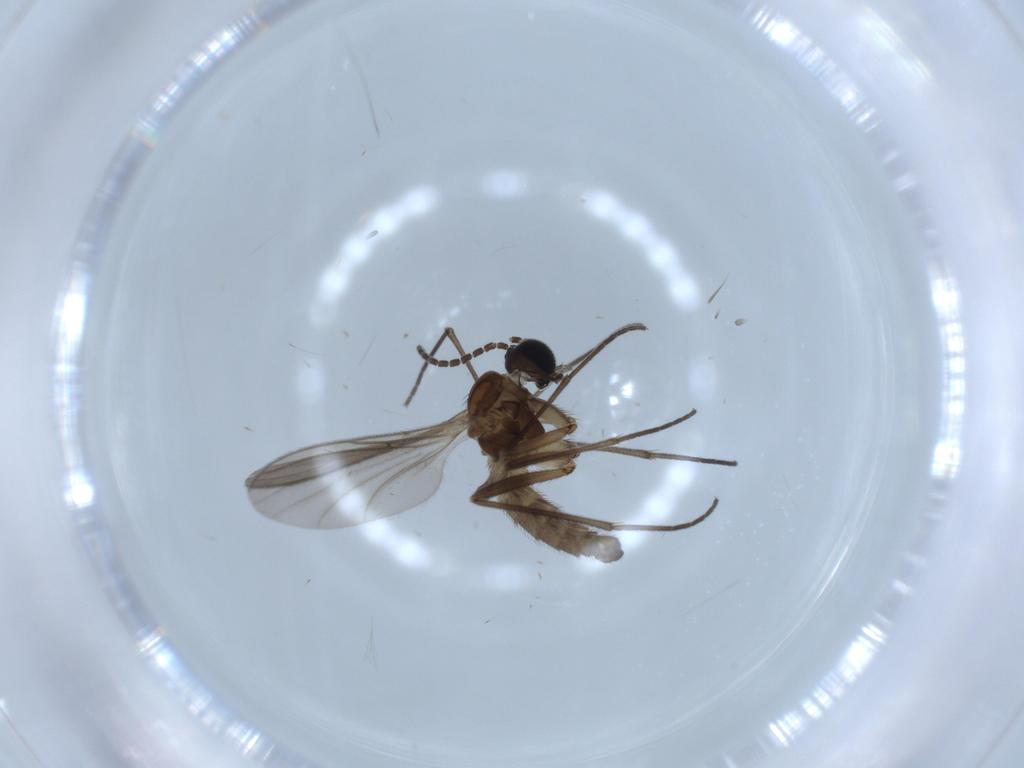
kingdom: Animalia
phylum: Arthropoda
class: Insecta
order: Diptera
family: Sciaridae
